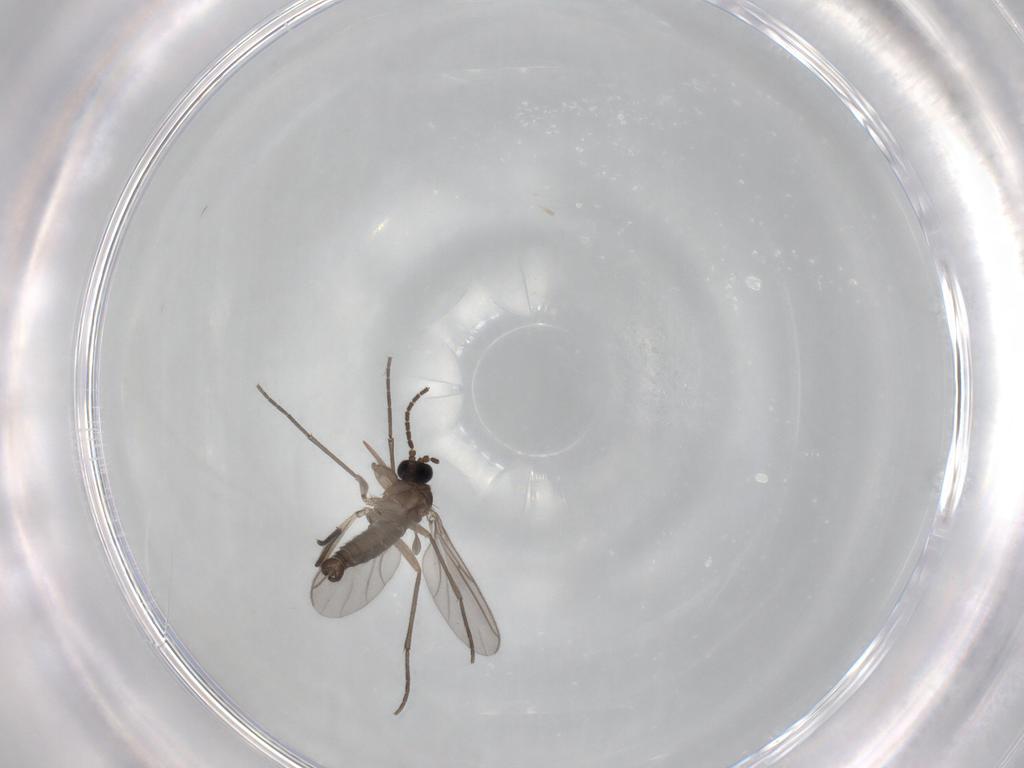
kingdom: Animalia
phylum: Arthropoda
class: Insecta
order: Diptera
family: Sciaridae
